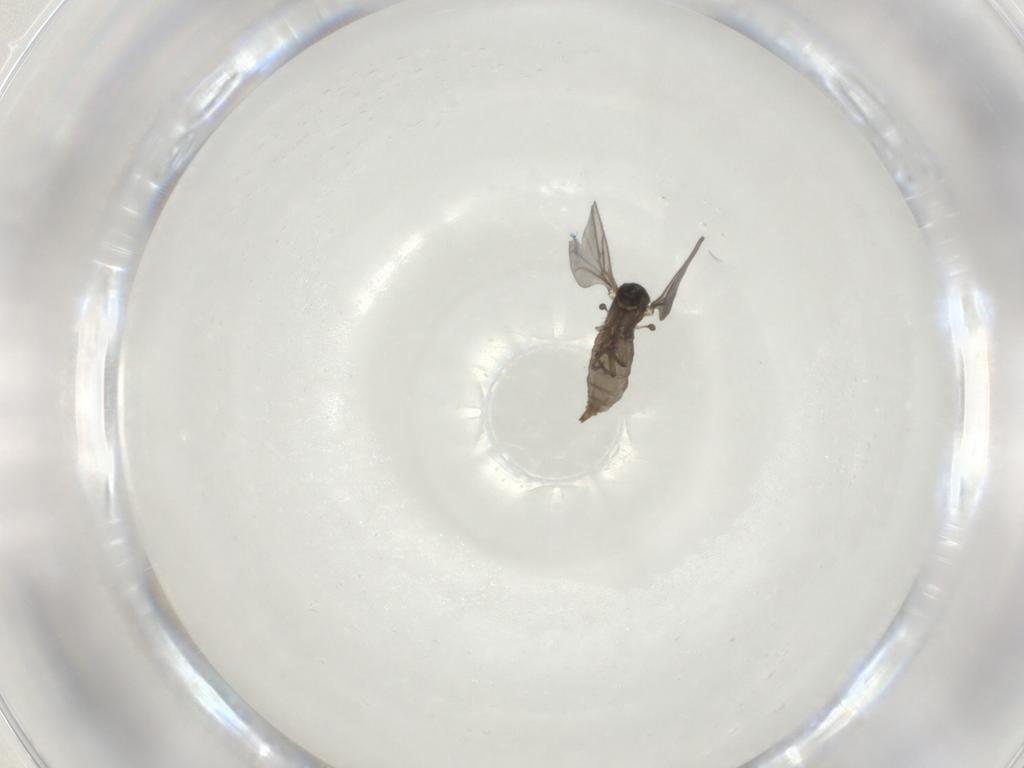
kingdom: Animalia
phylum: Arthropoda
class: Insecta
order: Diptera
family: Sciaridae
